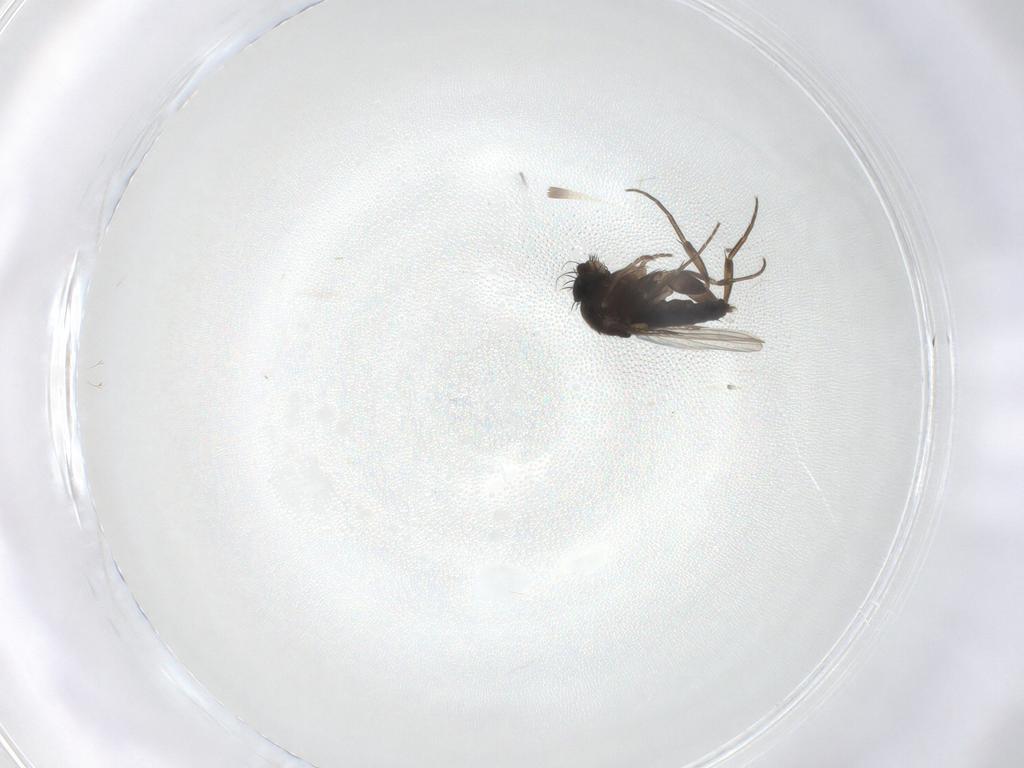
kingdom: Animalia
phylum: Arthropoda
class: Insecta
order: Diptera
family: Phoridae
